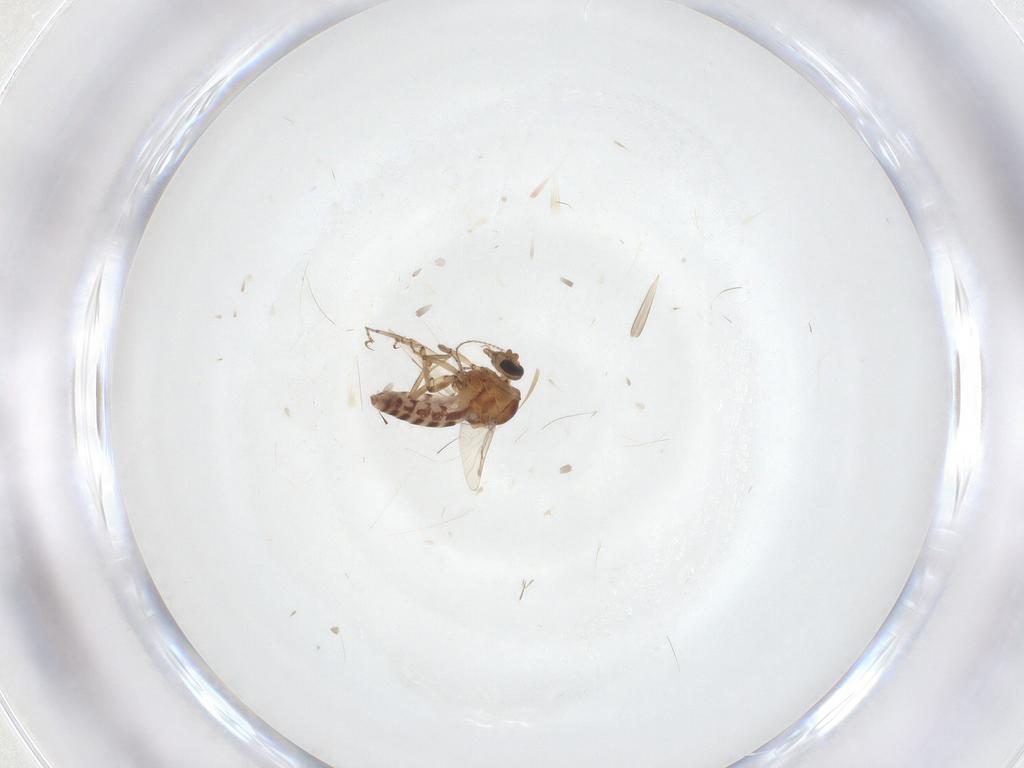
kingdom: Animalia
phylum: Arthropoda
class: Insecta
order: Diptera
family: Ceratopogonidae
